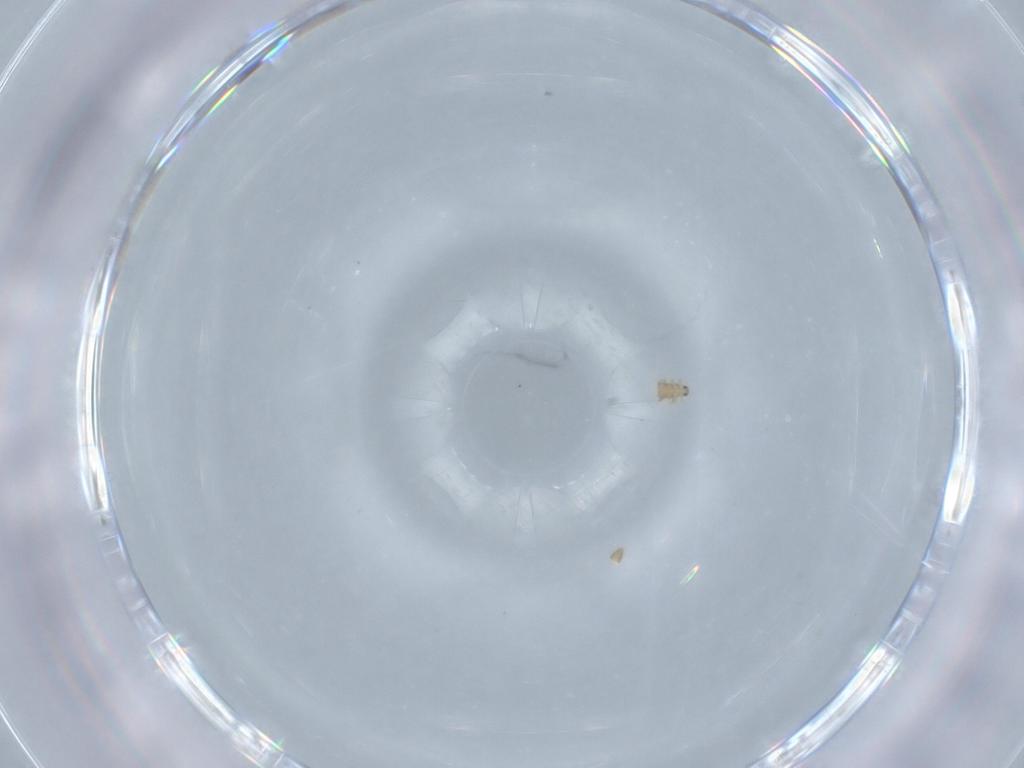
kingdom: Animalia
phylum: Arthropoda
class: Insecta
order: Coleoptera
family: Ripiphoridae
